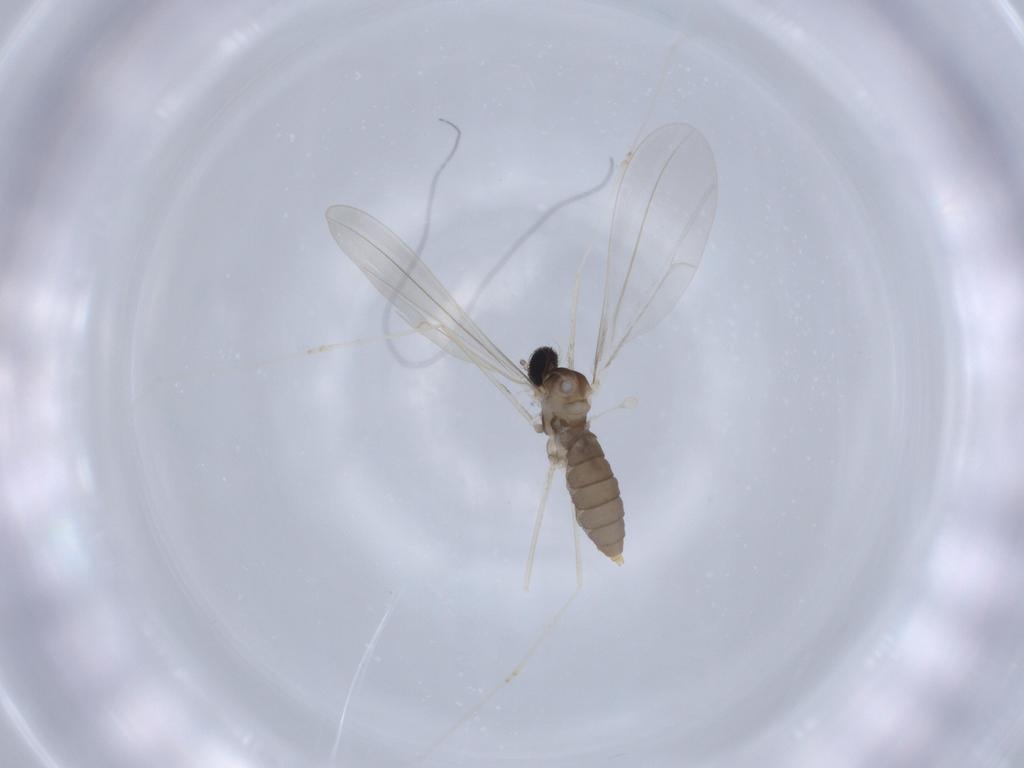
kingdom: Animalia
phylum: Arthropoda
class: Insecta
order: Diptera
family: Cecidomyiidae
